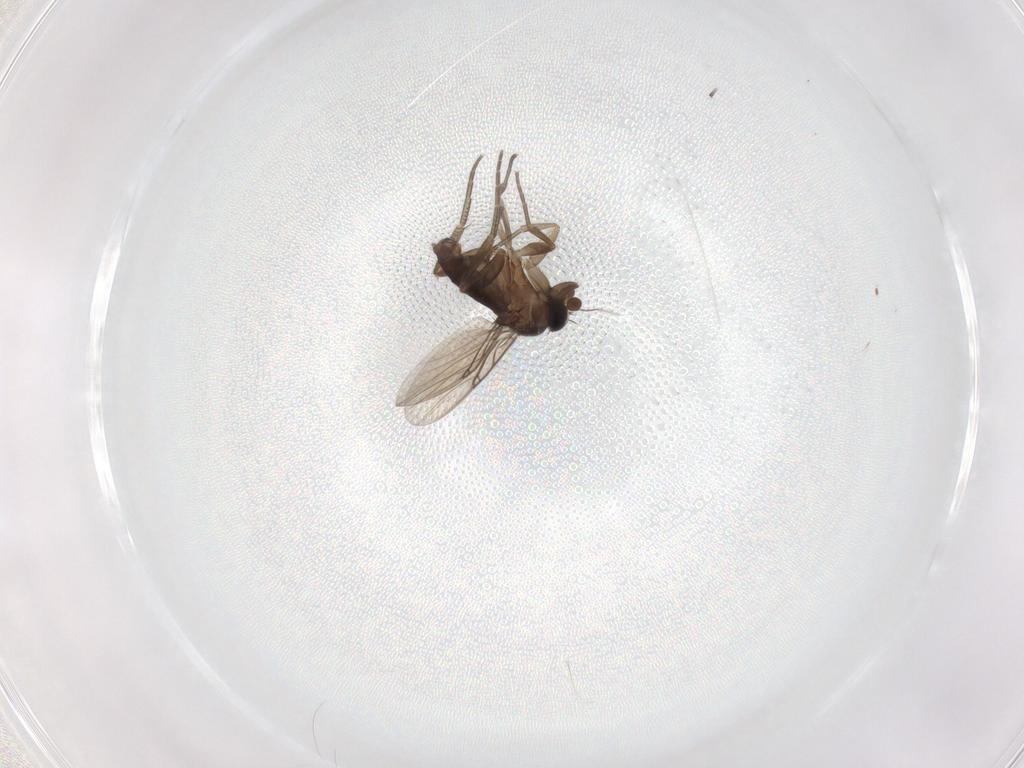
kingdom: Animalia
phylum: Arthropoda
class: Insecta
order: Diptera
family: Phoridae
